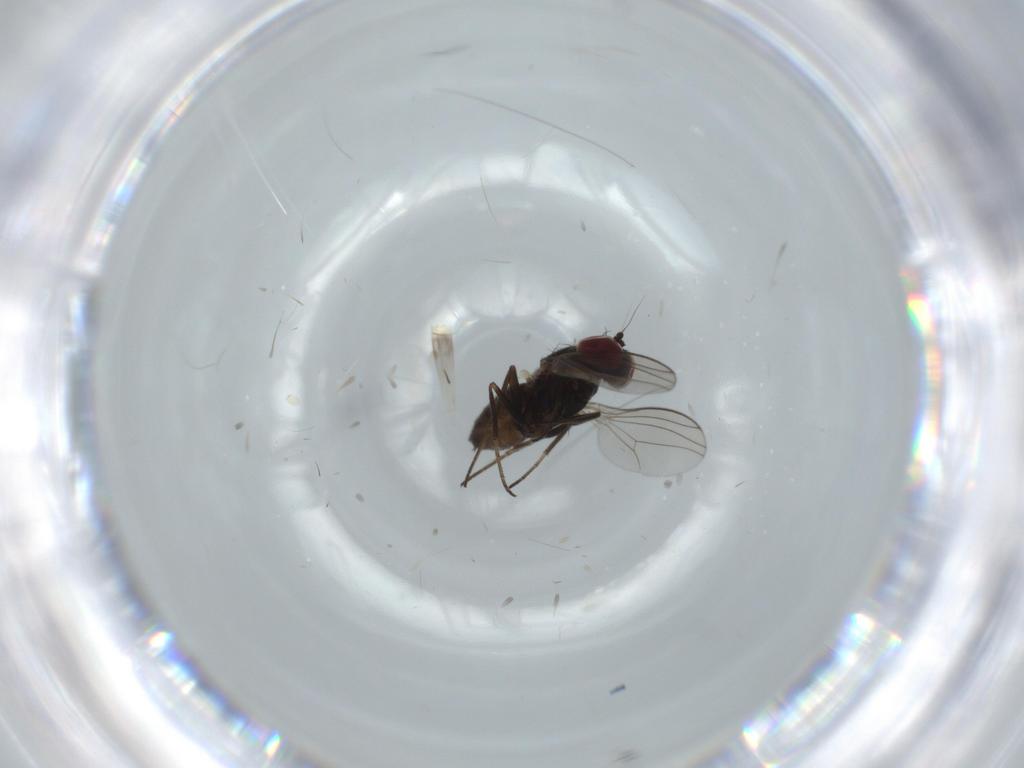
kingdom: Animalia
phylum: Arthropoda
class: Insecta
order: Diptera
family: Dolichopodidae
